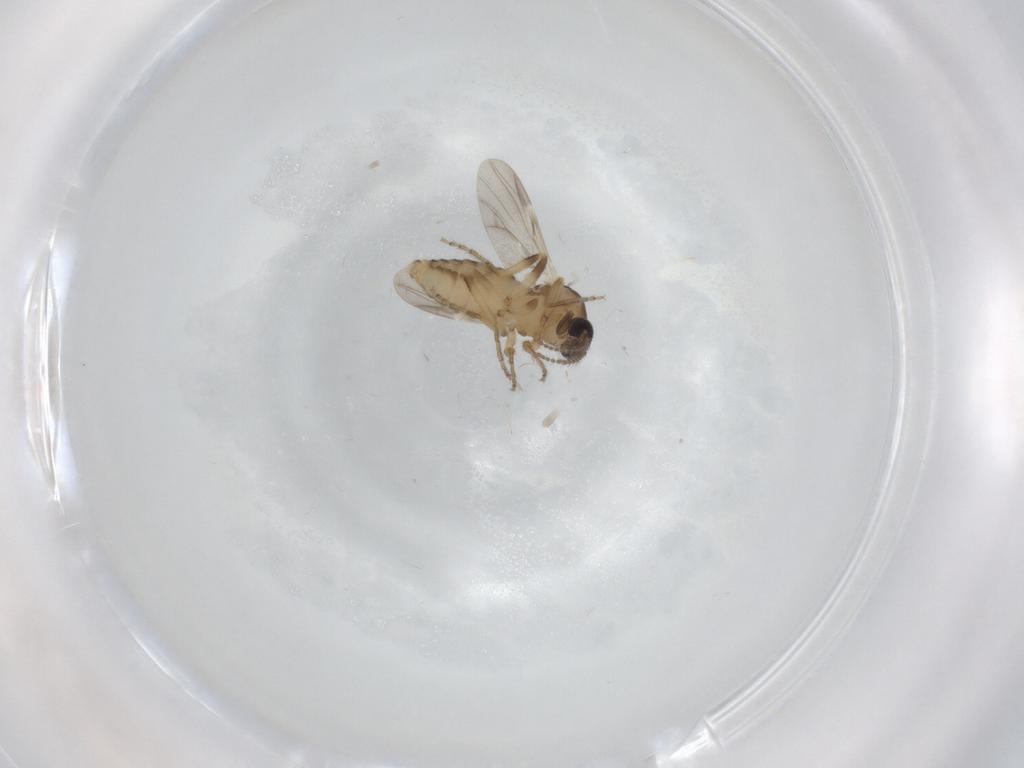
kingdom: Animalia
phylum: Arthropoda
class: Insecta
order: Diptera
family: Ceratopogonidae
